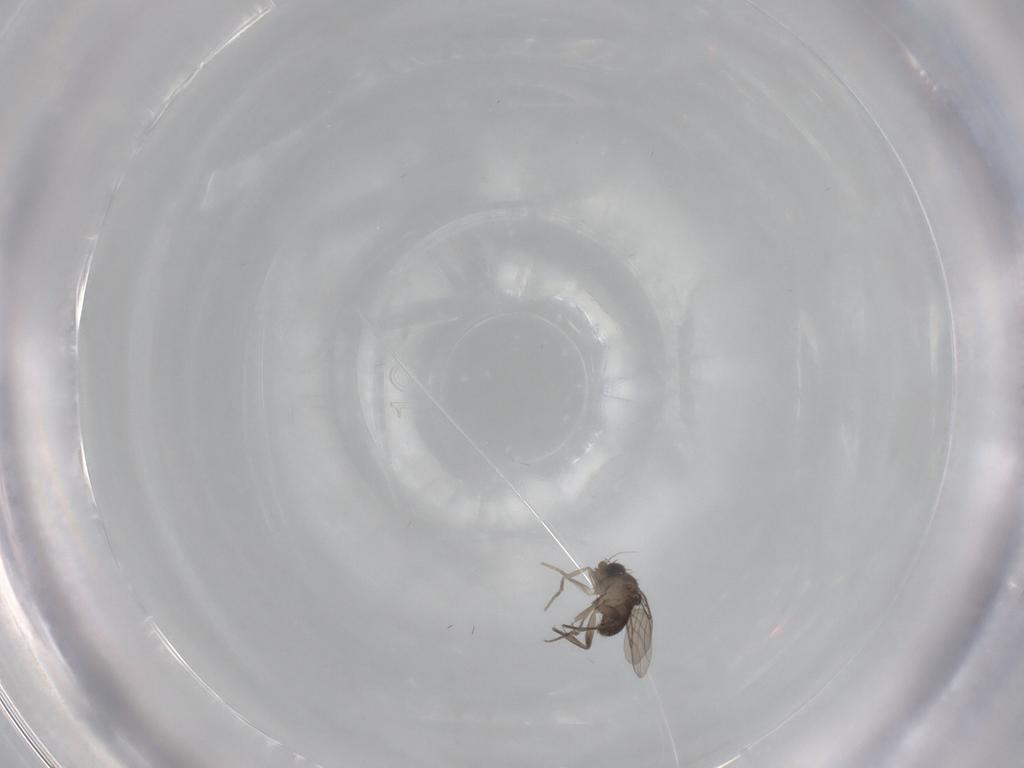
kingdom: Animalia
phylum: Arthropoda
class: Insecta
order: Diptera
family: Phoridae
